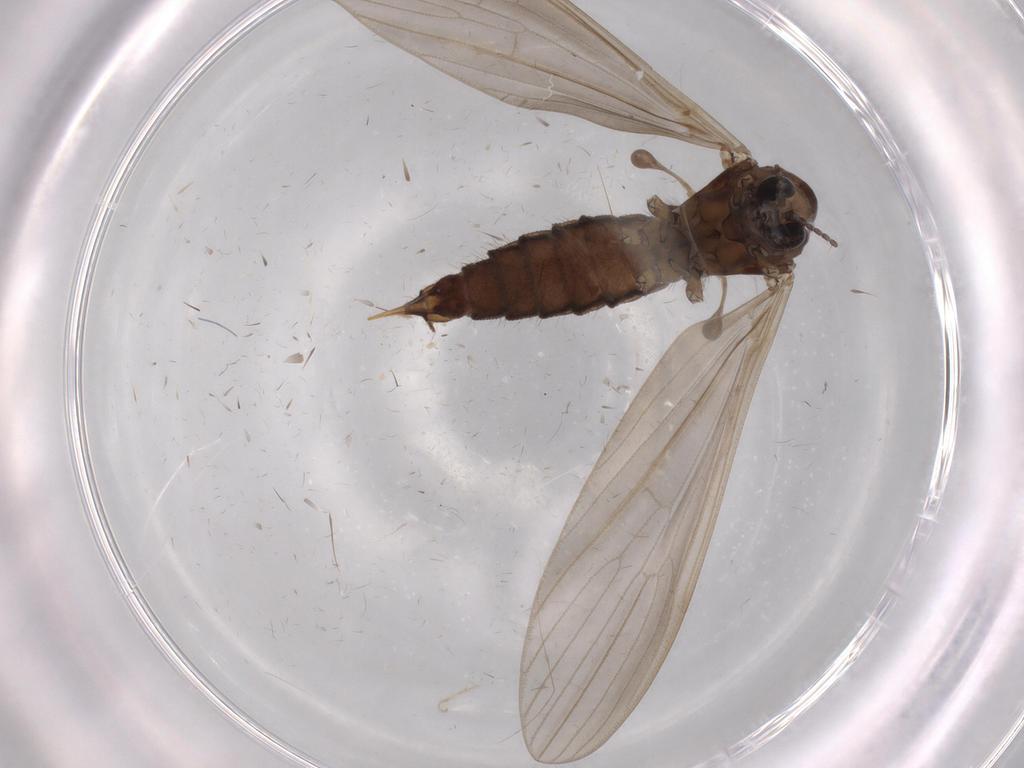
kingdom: Animalia
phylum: Arthropoda
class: Insecta
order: Diptera
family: Limoniidae
